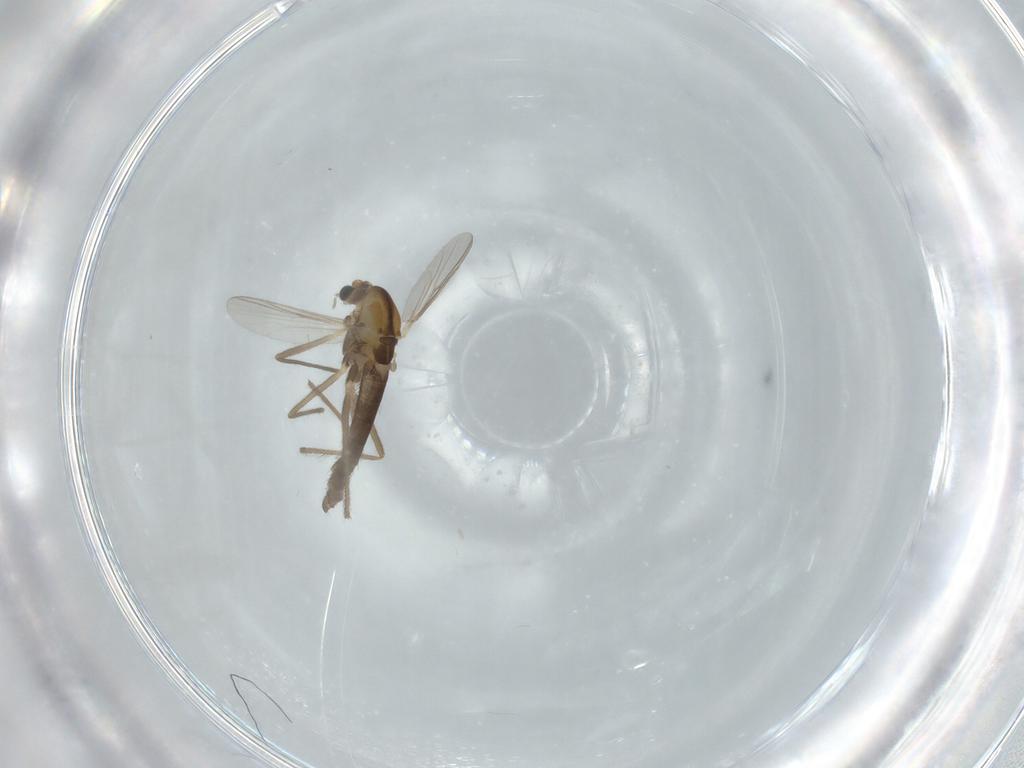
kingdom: Animalia
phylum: Arthropoda
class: Insecta
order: Diptera
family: Chironomidae
